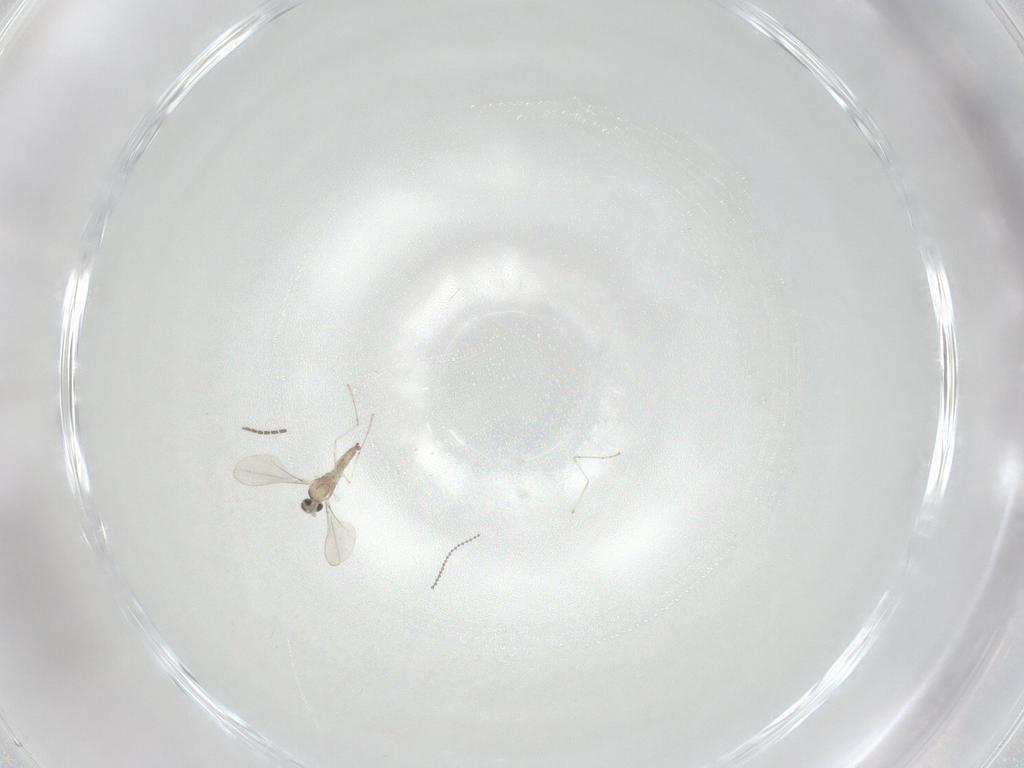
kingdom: Animalia
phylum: Arthropoda
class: Insecta
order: Diptera
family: Cecidomyiidae
